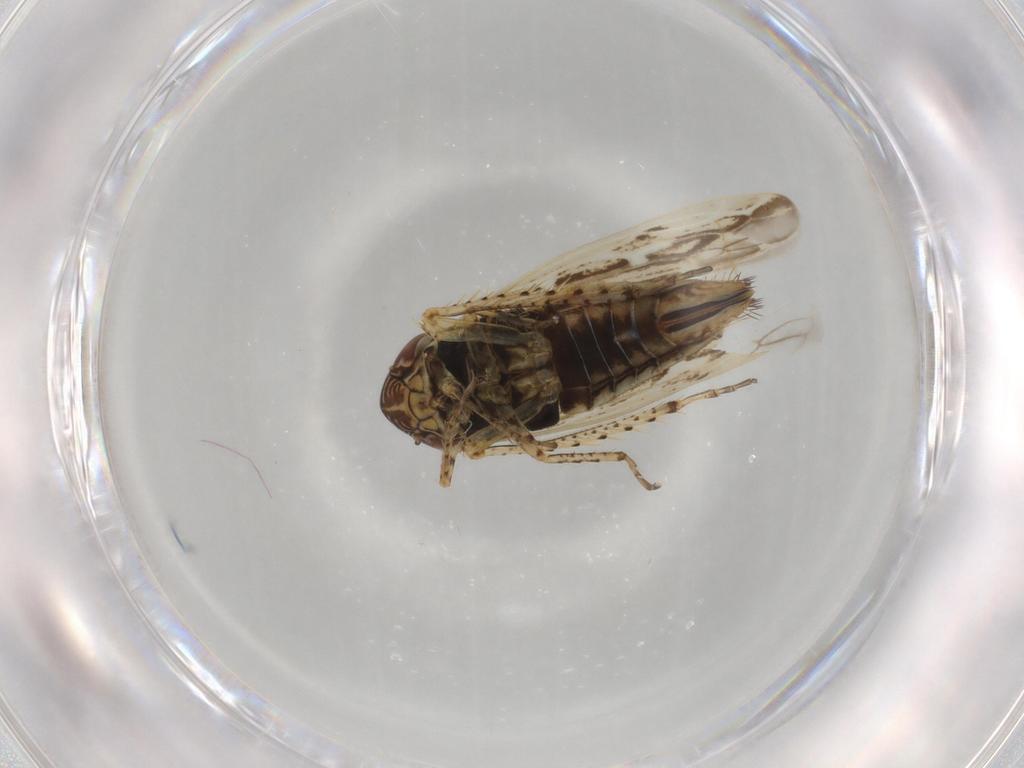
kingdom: Animalia
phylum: Arthropoda
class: Insecta
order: Hemiptera
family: Cicadellidae
